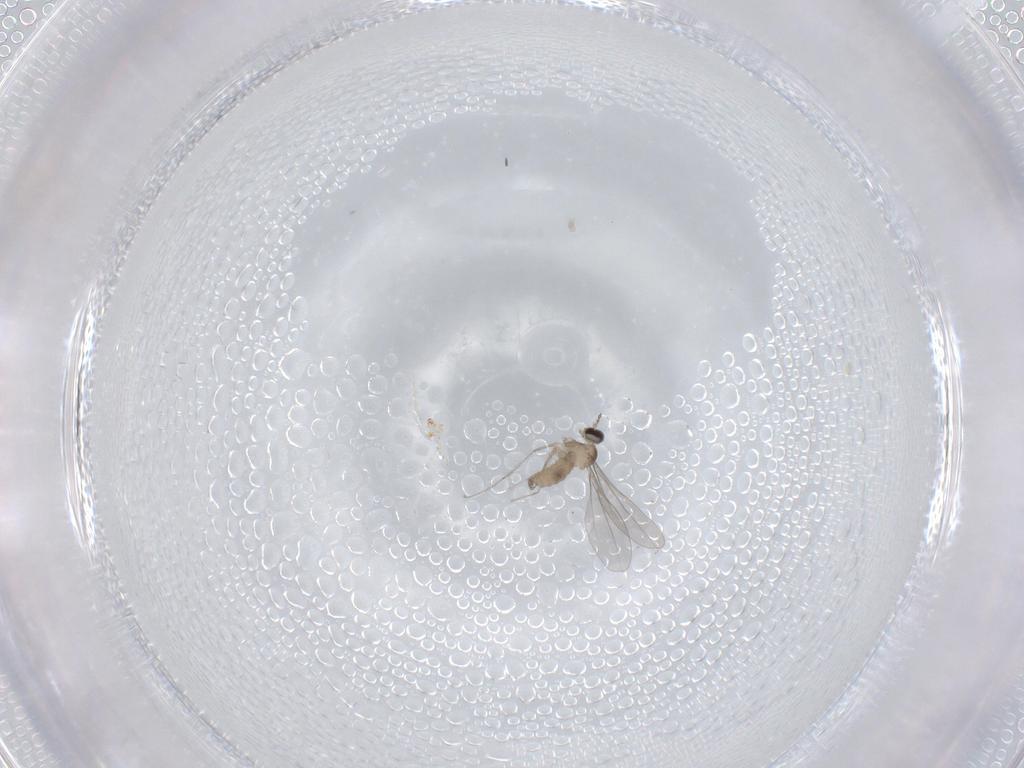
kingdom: Animalia
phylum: Arthropoda
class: Insecta
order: Diptera
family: Cecidomyiidae
